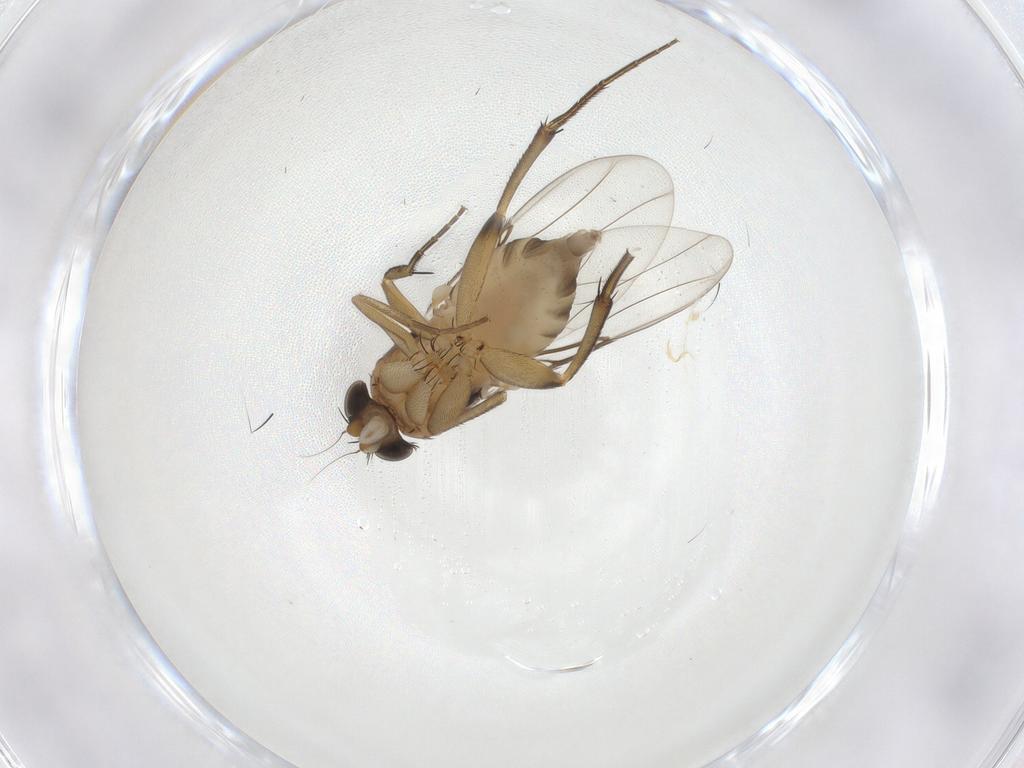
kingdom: Animalia
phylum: Arthropoda
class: Insecta
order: Diptera
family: Phoridae
